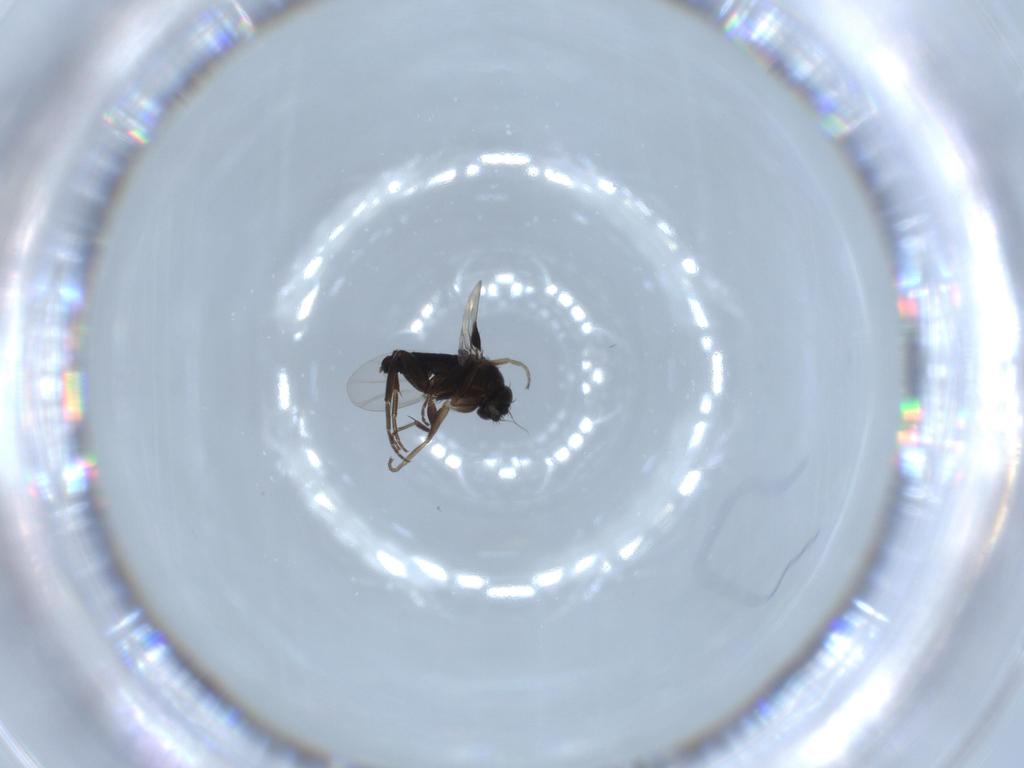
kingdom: Animalia
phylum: Arthropoda
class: Insecta
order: Diptera
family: Phoridae
